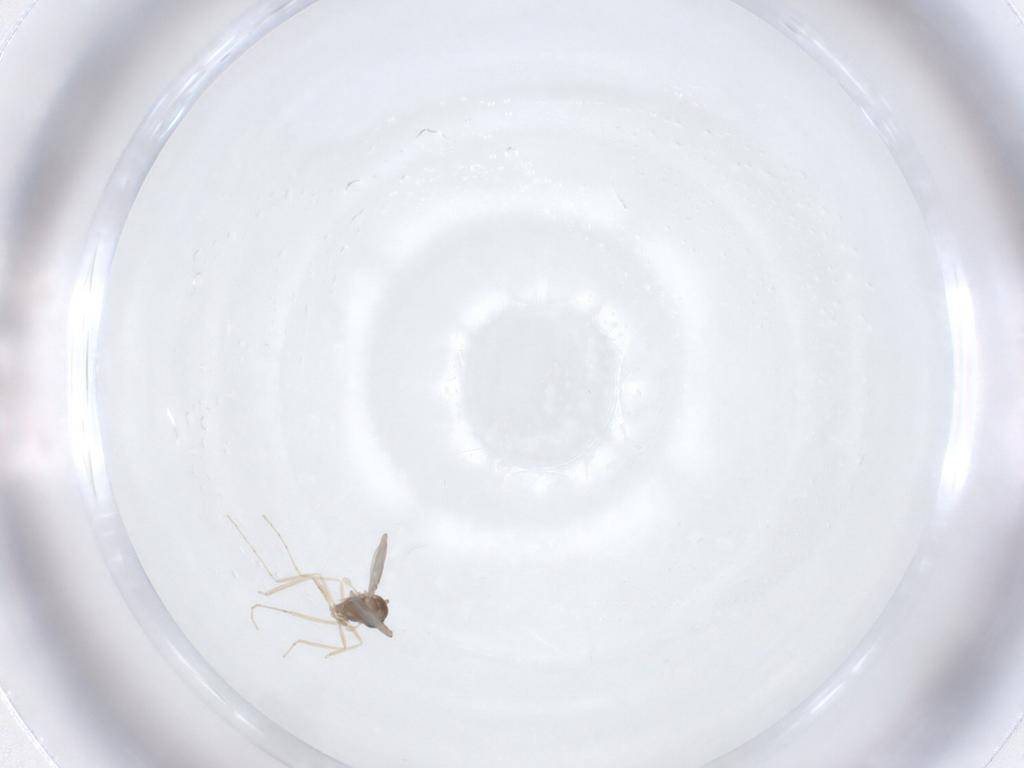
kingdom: Animalia
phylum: Arthropoda
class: Insecta
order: Diptera
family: Cecidomyiidae
